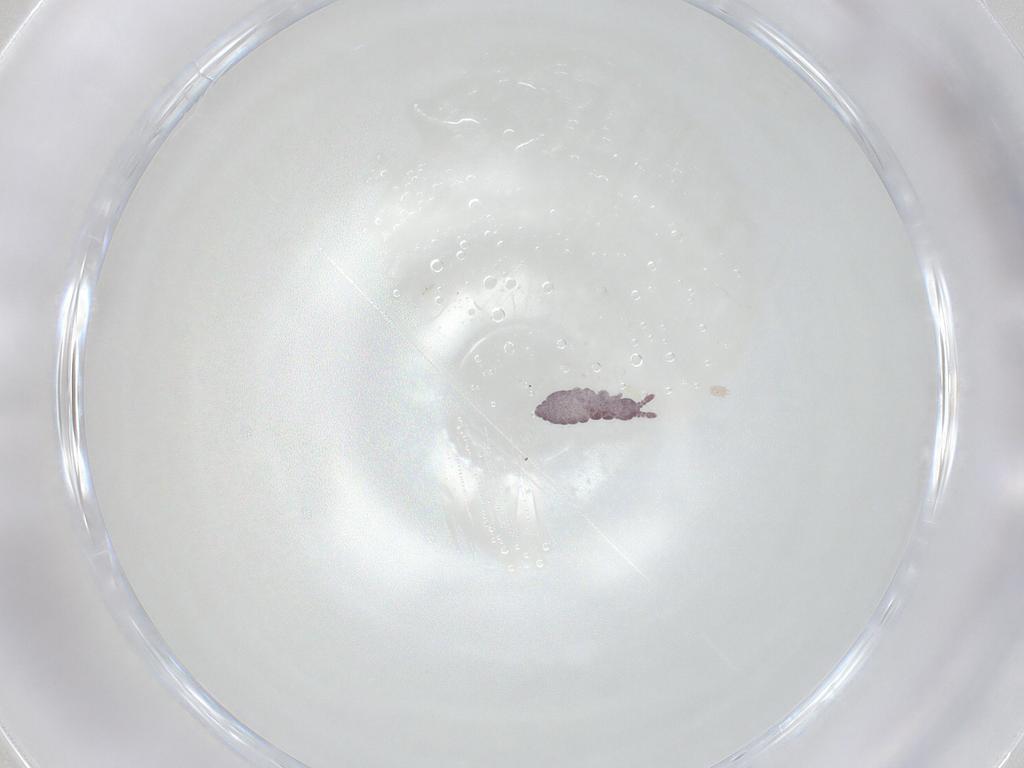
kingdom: Animalia
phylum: Arthropoda
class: Collembola
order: Poduromorpha
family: Hypogastruridae
